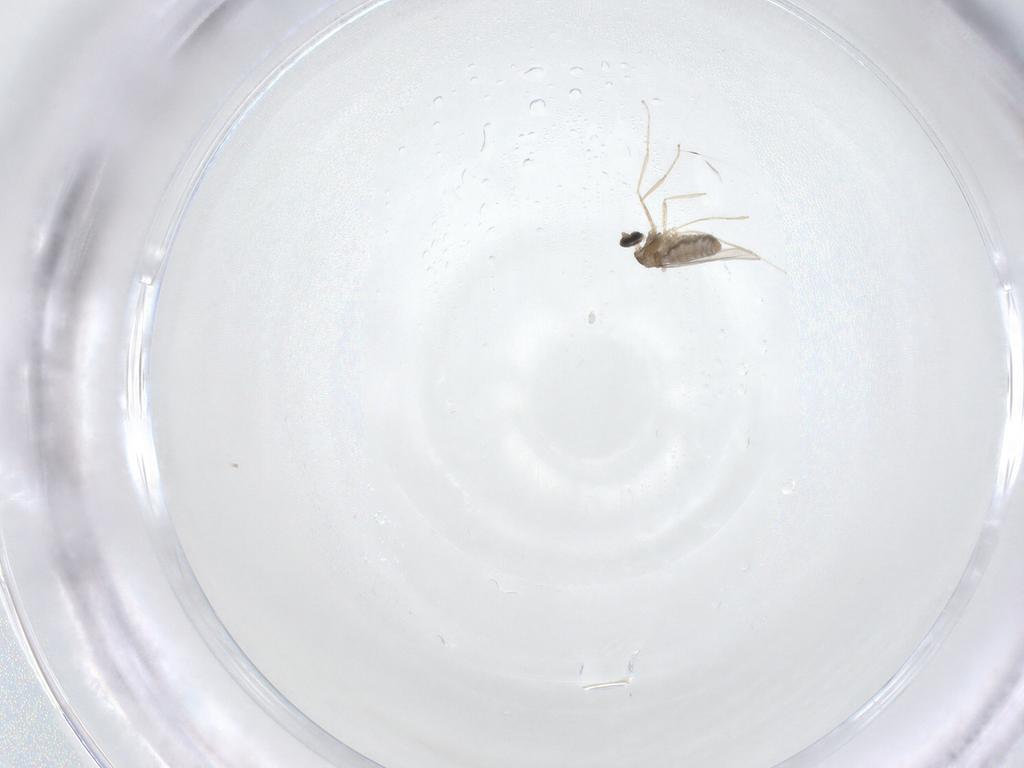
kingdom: Animalia
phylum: Arthropoda
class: Insecta
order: Diptera
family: Cecidomyiidae
